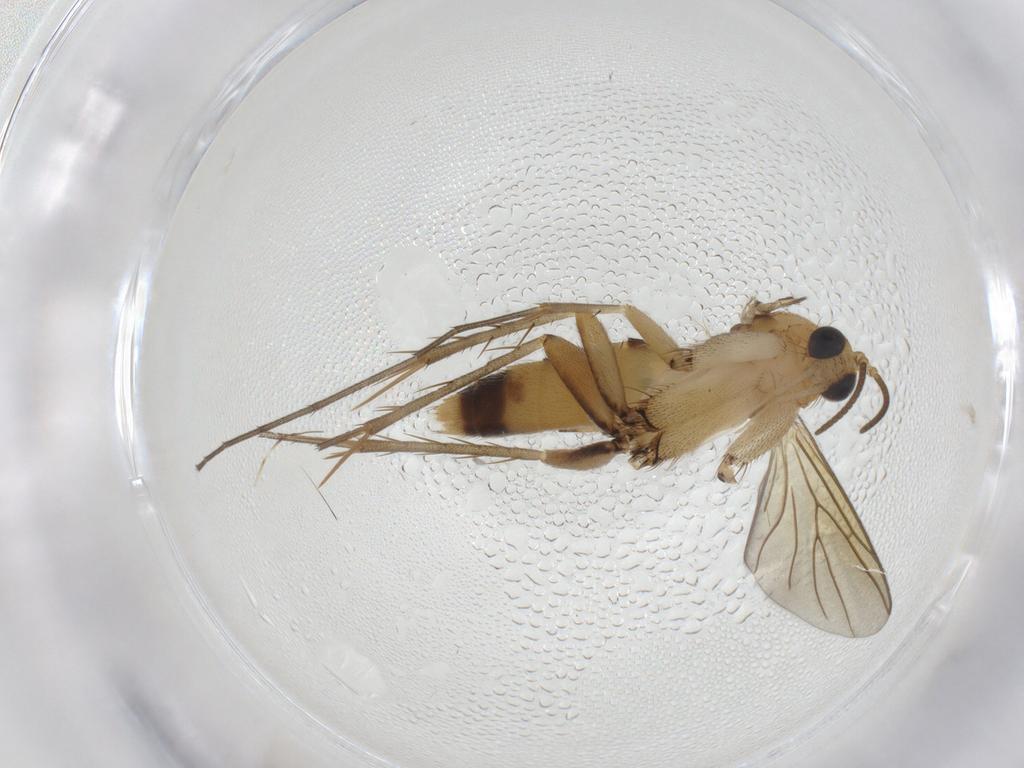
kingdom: Animalia
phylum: Arthropoda
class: Insecta
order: Diptera
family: Mycetophilidae
